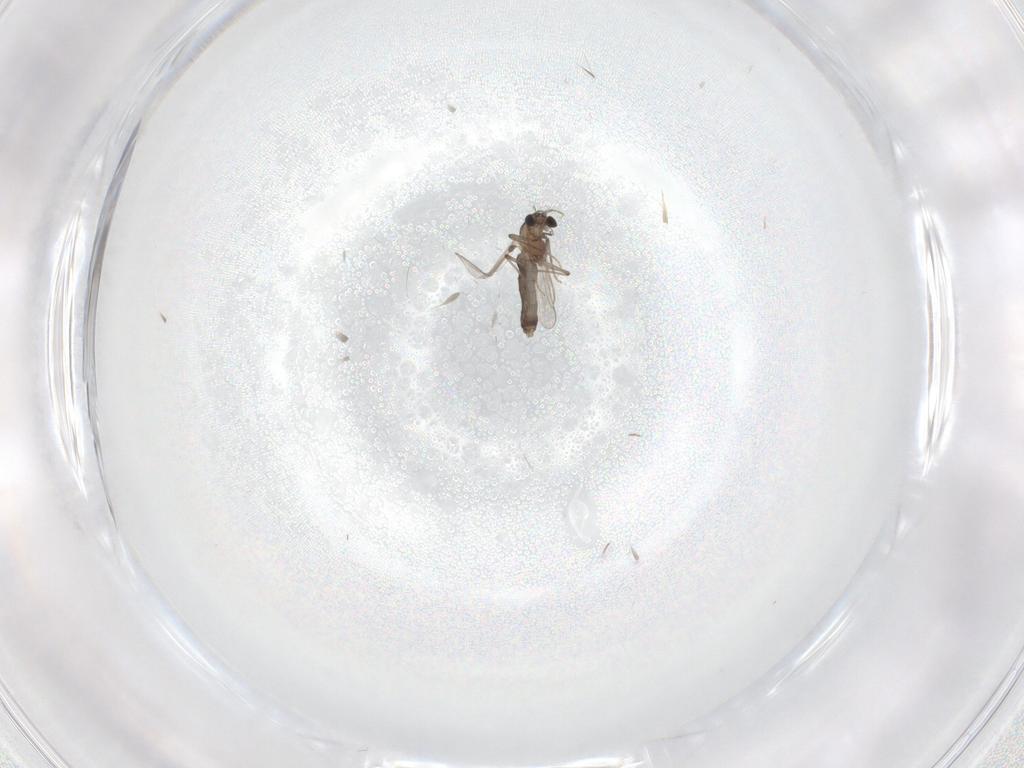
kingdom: Animalia
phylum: Arthropoda
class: Insecta
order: Diptera
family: Chironomidae
